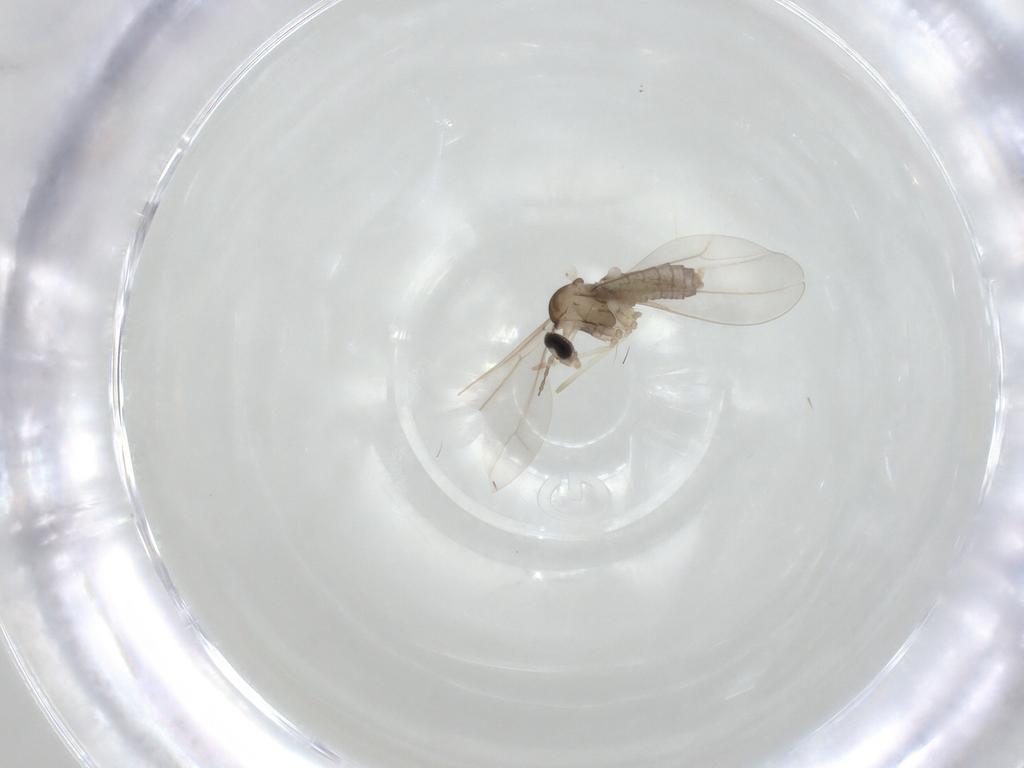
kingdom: Animalia
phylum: Arthropoda
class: Insecta
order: Diptera
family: Cecidomyiidae
